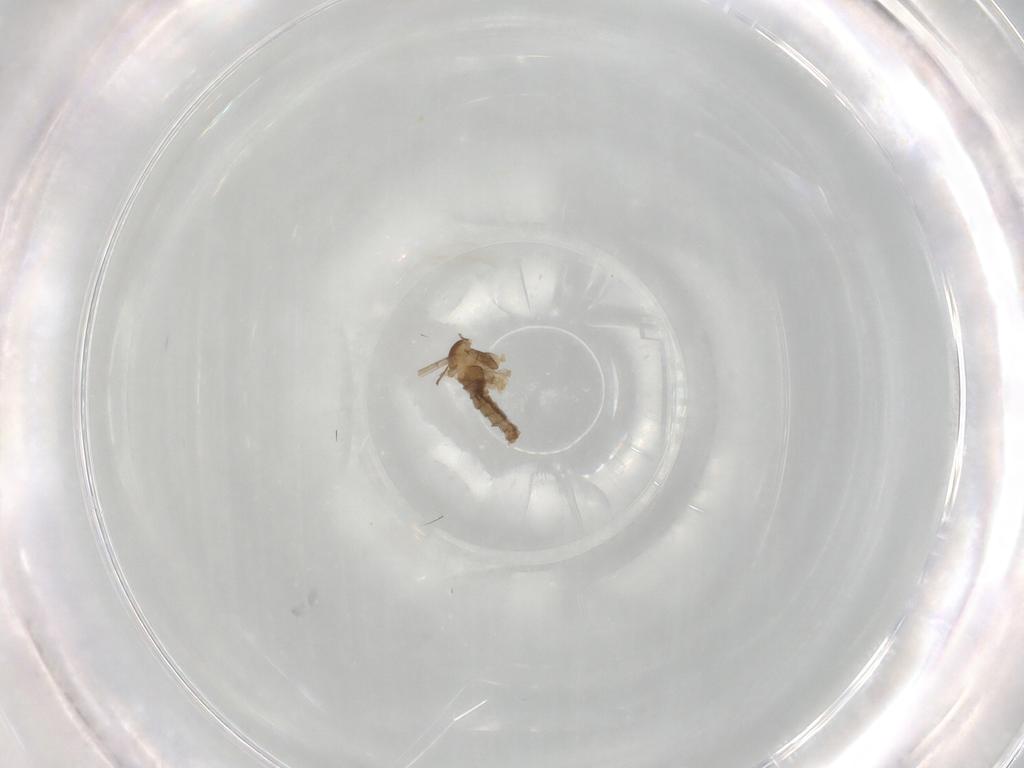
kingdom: Animalia
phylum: Arthropoda
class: Insecta
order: Diptera
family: Cecidomyiidae
